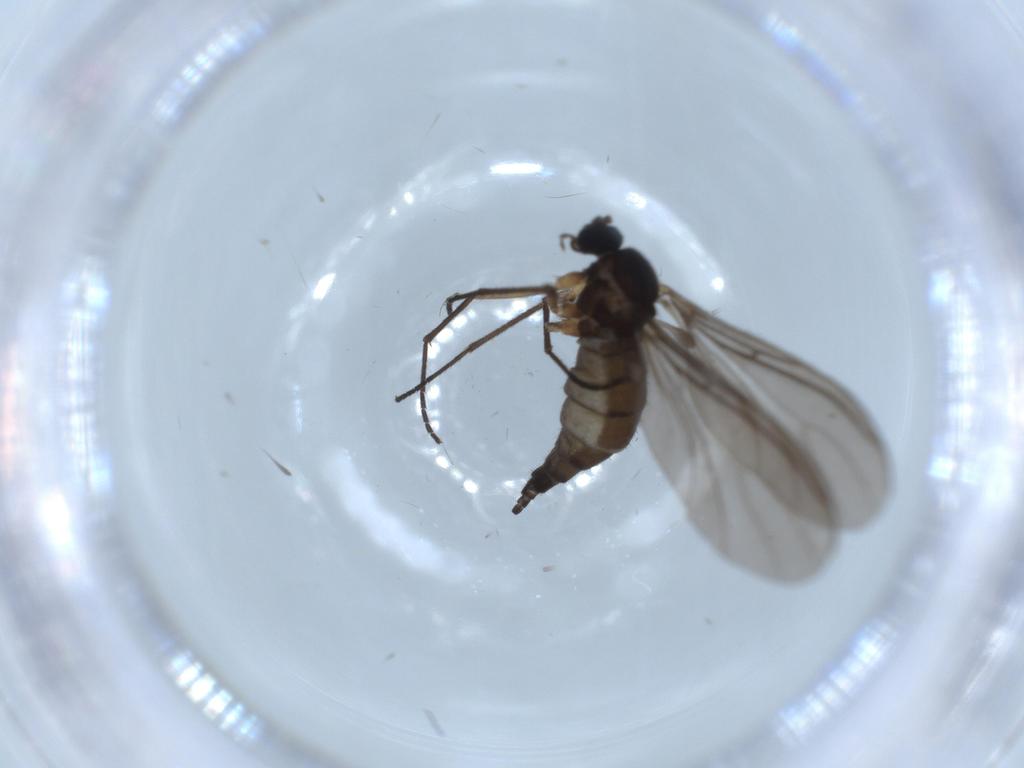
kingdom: Animalia
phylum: Arthropoda
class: Insecta
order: Diptera
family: Sciaridae
